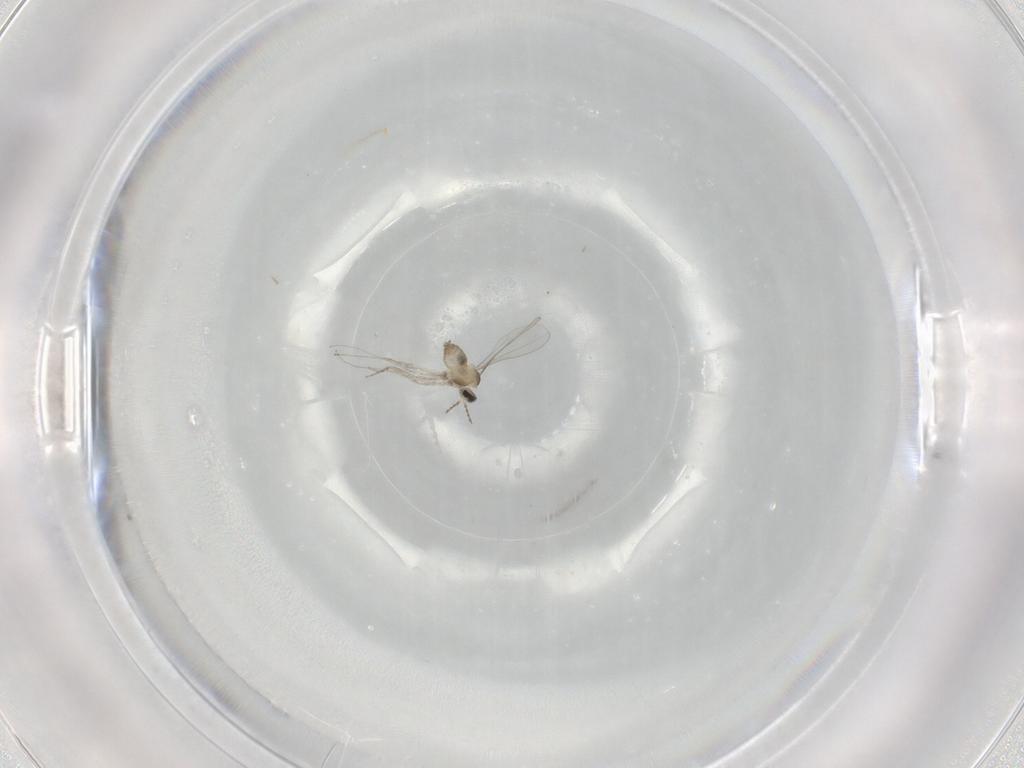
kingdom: Animalia
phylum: Arthropoda
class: Insecta
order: Diptera
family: Cecidomyiidae
